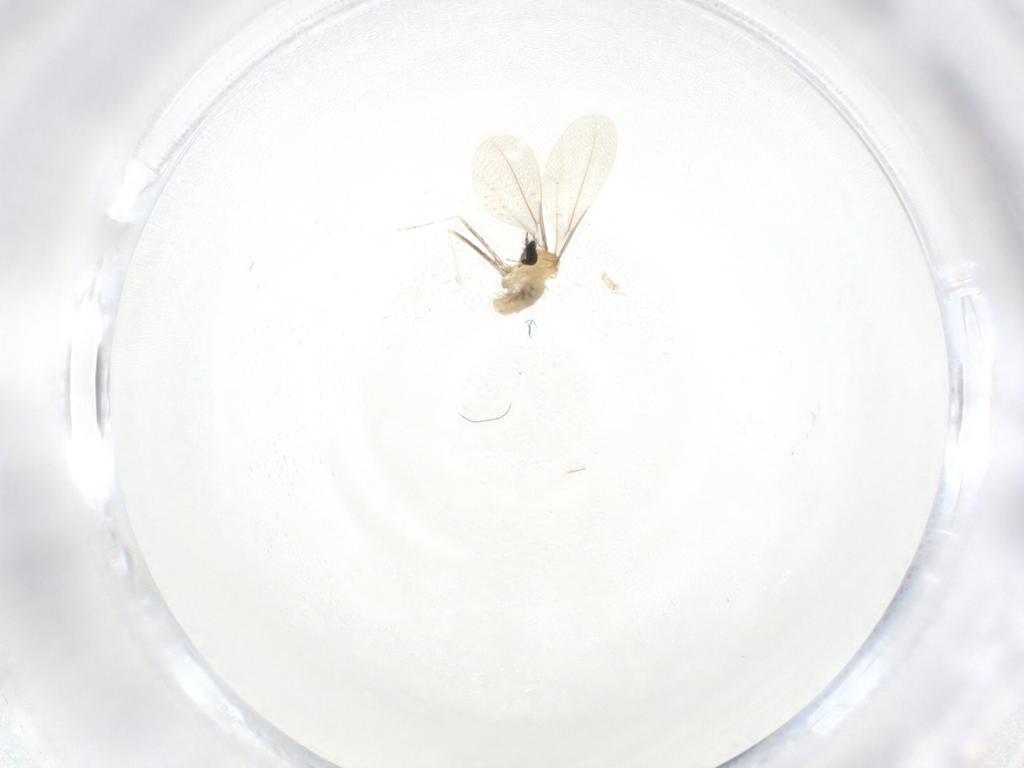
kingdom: Animalia
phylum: Arthropoda
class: Insecta
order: Diptera
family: Cecidomyiidae
